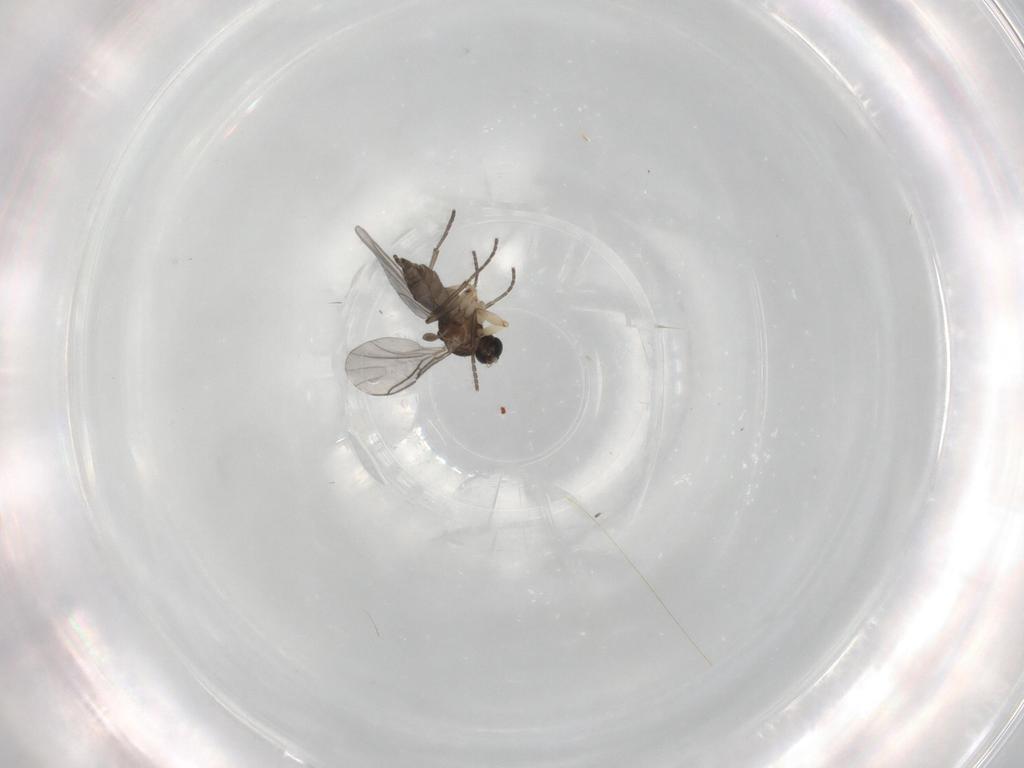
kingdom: Animalia
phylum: Arthropoda
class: Insecta
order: Diptera
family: Sciaridae
